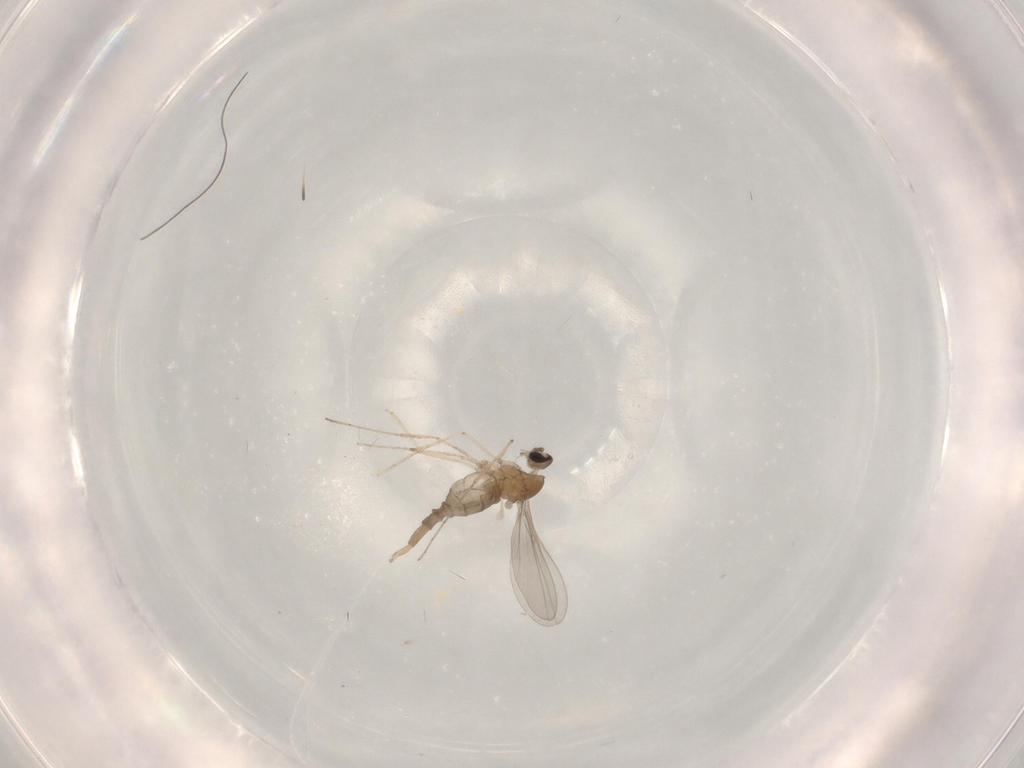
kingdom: Animalia
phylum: Arthropoda
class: Insecta
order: Diptera
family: Cecidomyiidae
